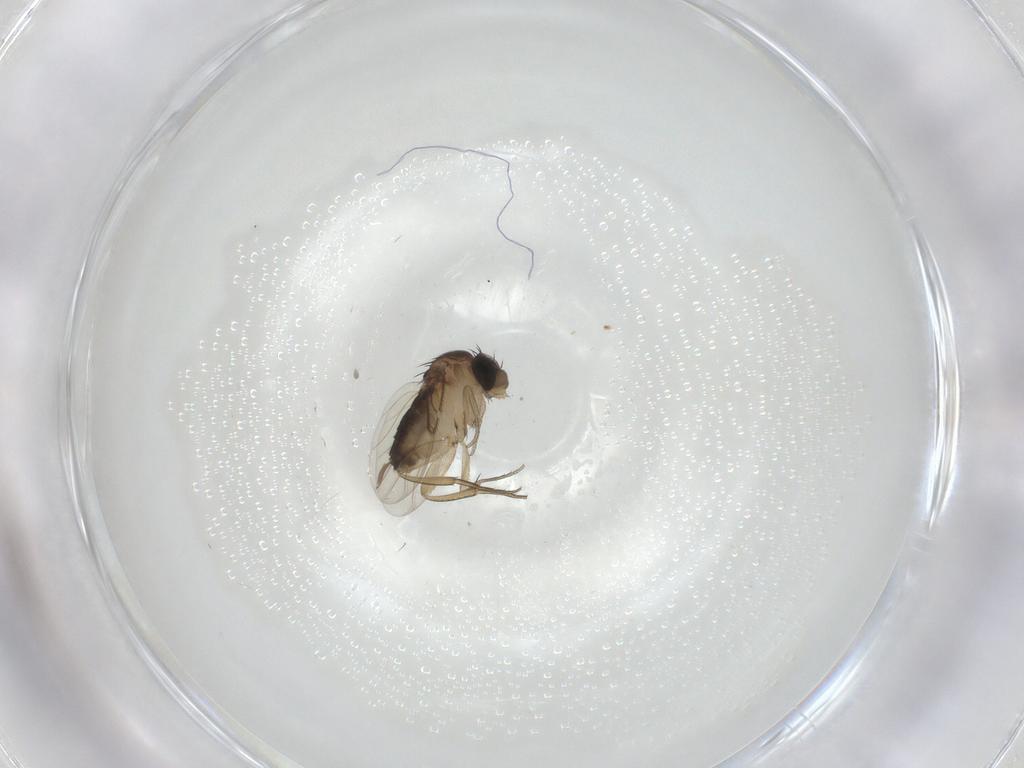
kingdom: Animalia
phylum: Arthropoda
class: Insecta
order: Diptera
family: Phoridae
